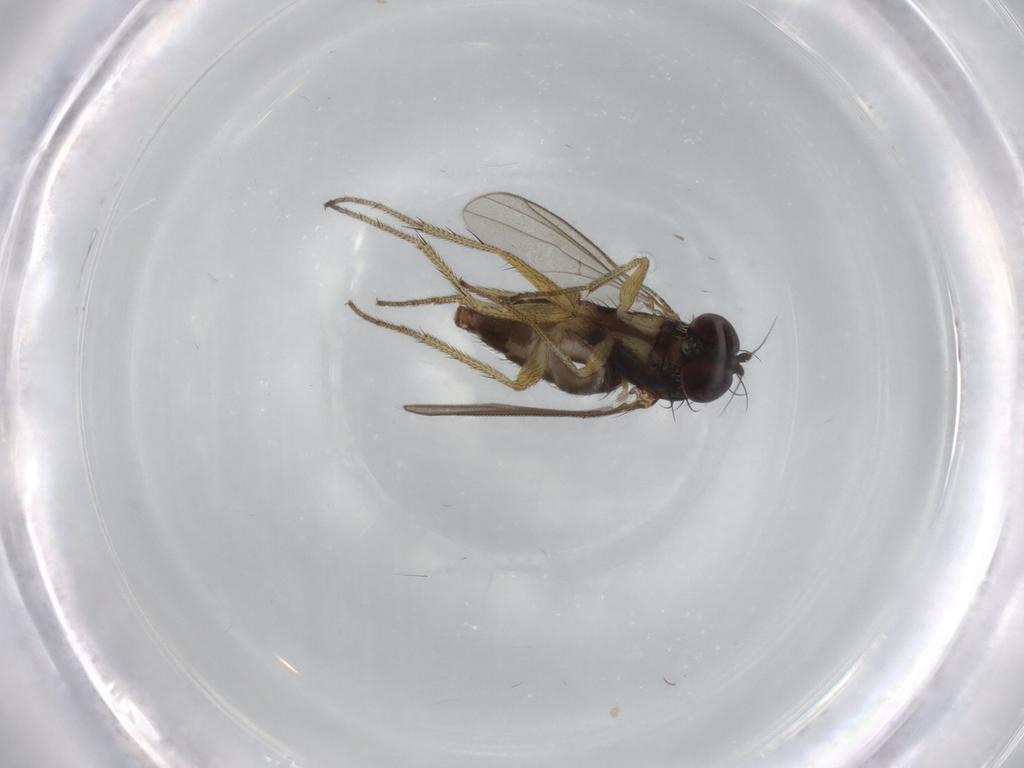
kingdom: Animalia
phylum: Arthropoda
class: Insecta
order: Diptera
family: Dolichopodidae
